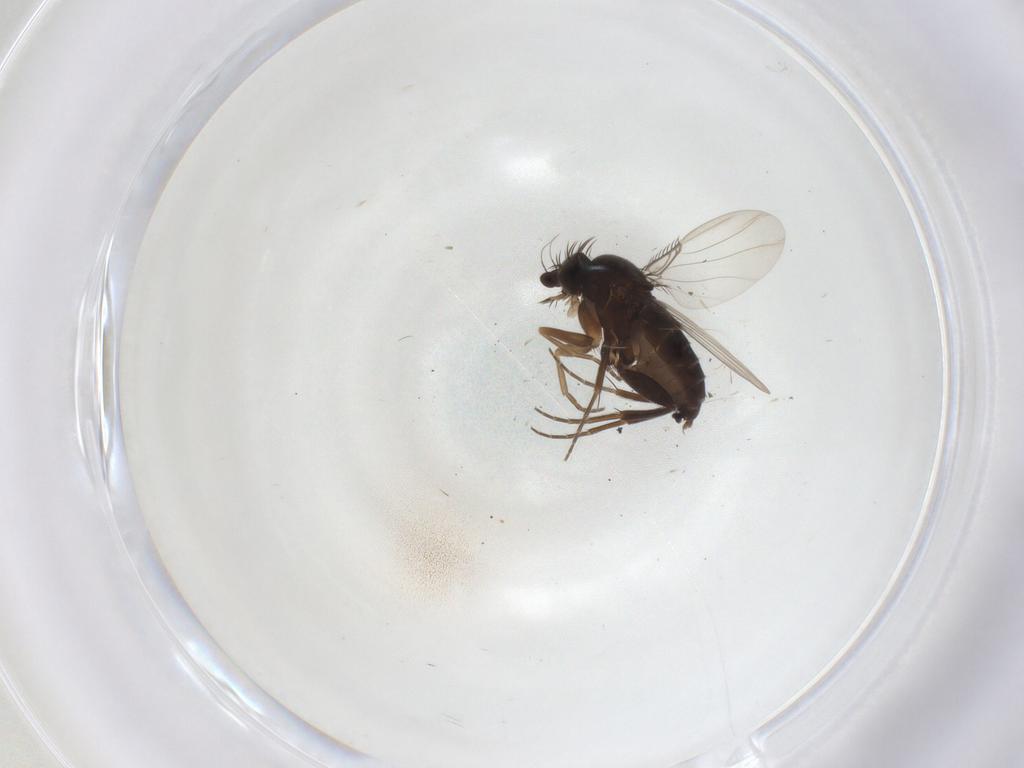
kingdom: Animalia
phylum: Arthropoda
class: Insecta
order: Diptera
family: Phoridae
